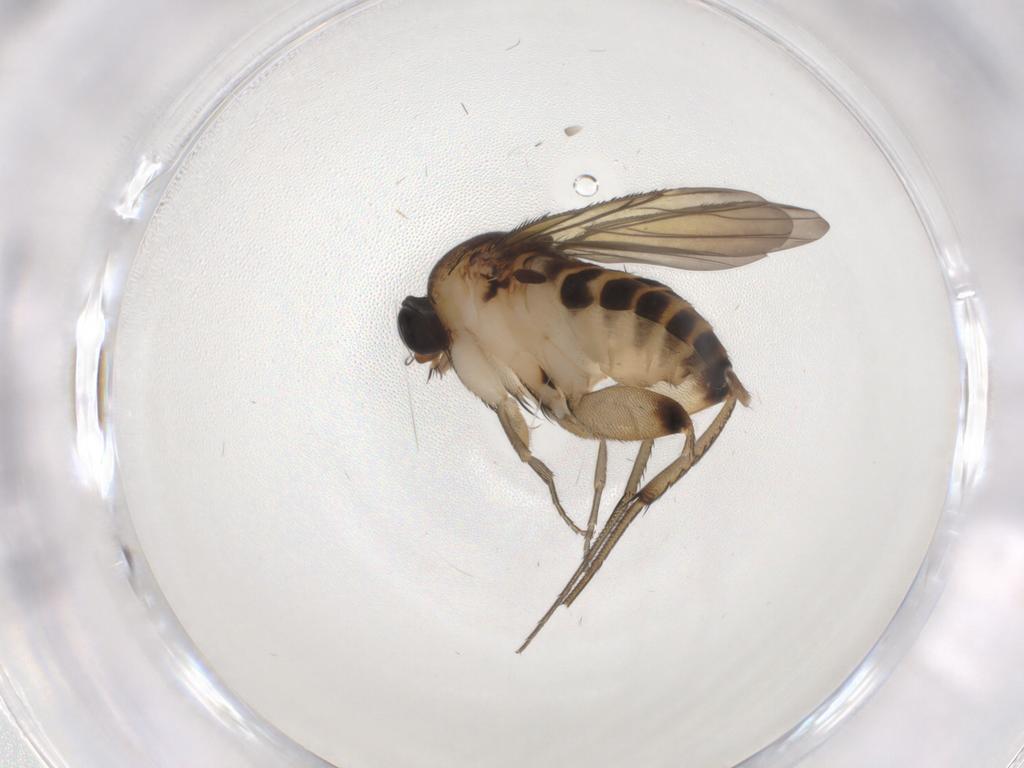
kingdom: Animalia
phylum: Arthropoda
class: Insecta
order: Diptera
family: Phoridae
